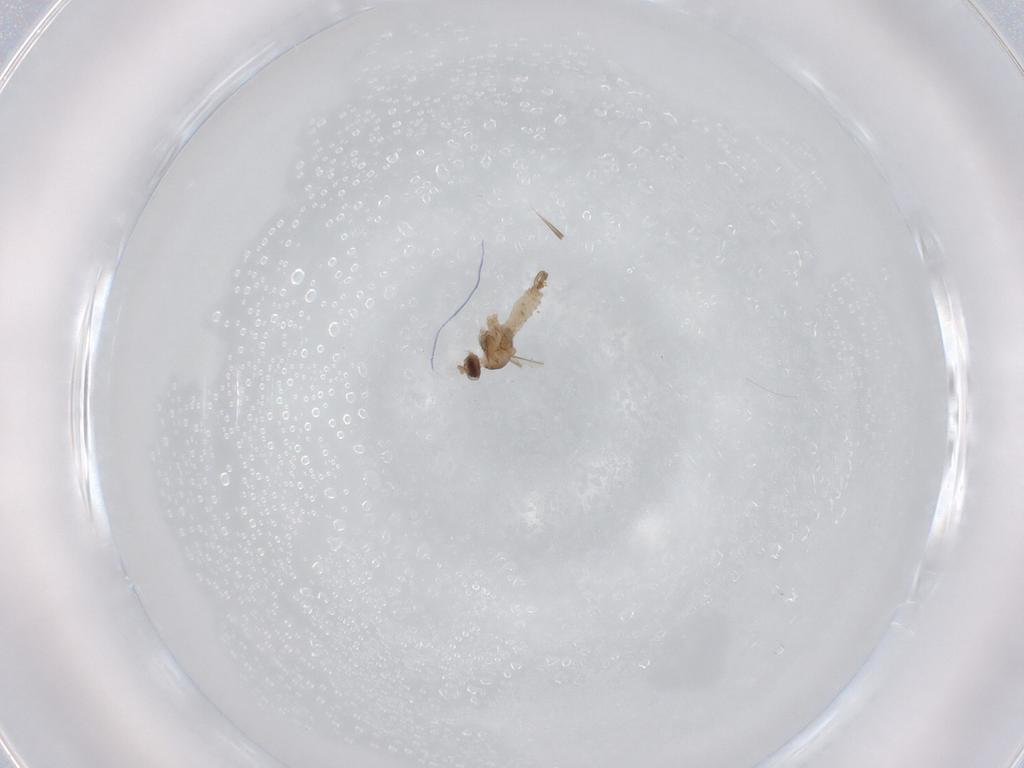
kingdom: Animalia
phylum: Arthropoda
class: Insecta
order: Diptera
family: Cecidomyiidae
